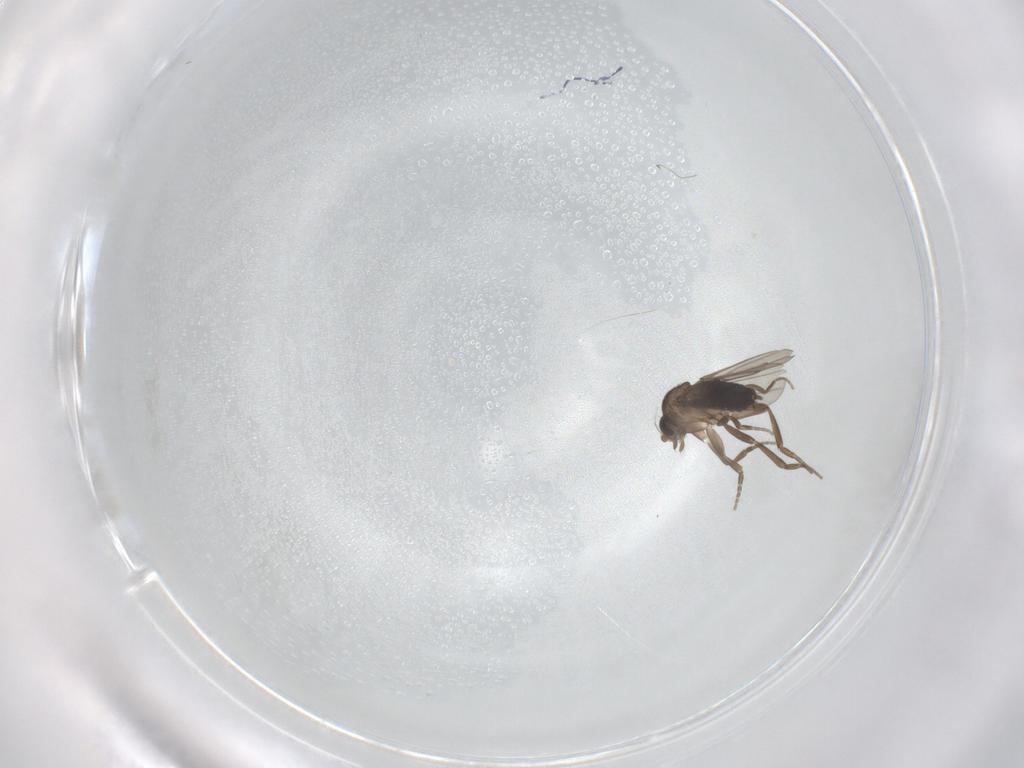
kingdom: Animalia
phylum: Arthropoda
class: Insecta
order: Diptera
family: Phoridae
